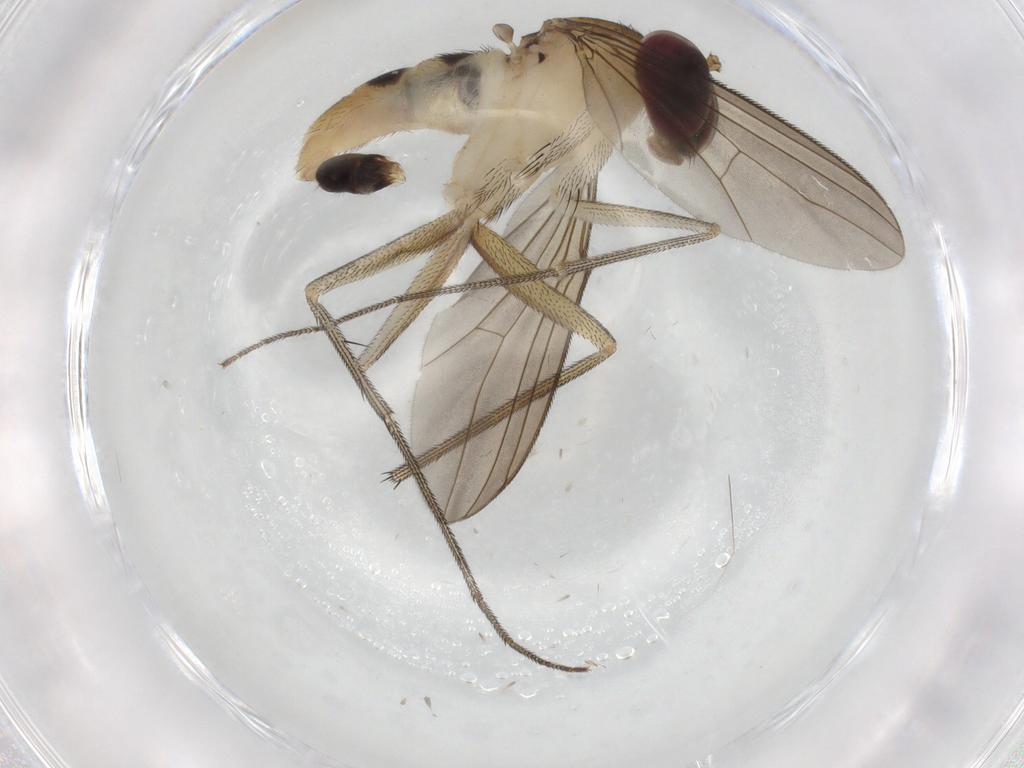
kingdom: Animalia
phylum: Arthropoda
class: Insecta
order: Diptera
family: Dolichopodidae
